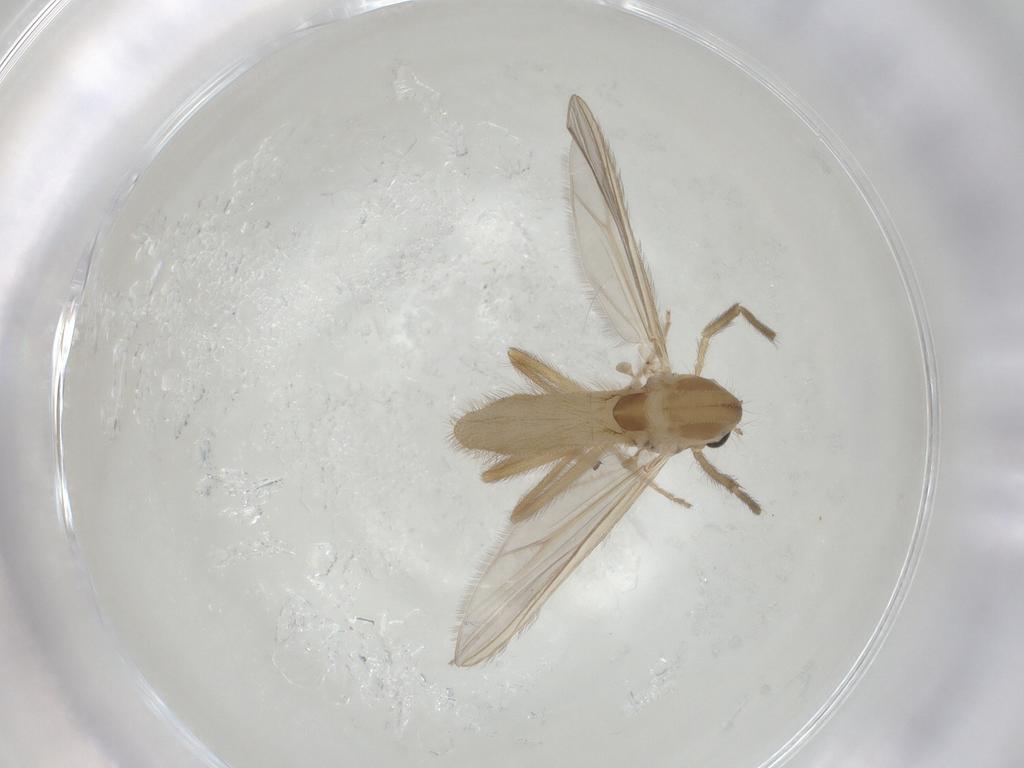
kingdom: Animalia
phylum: Arthropoda
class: Insecta
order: Diptera
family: Chironomidae
